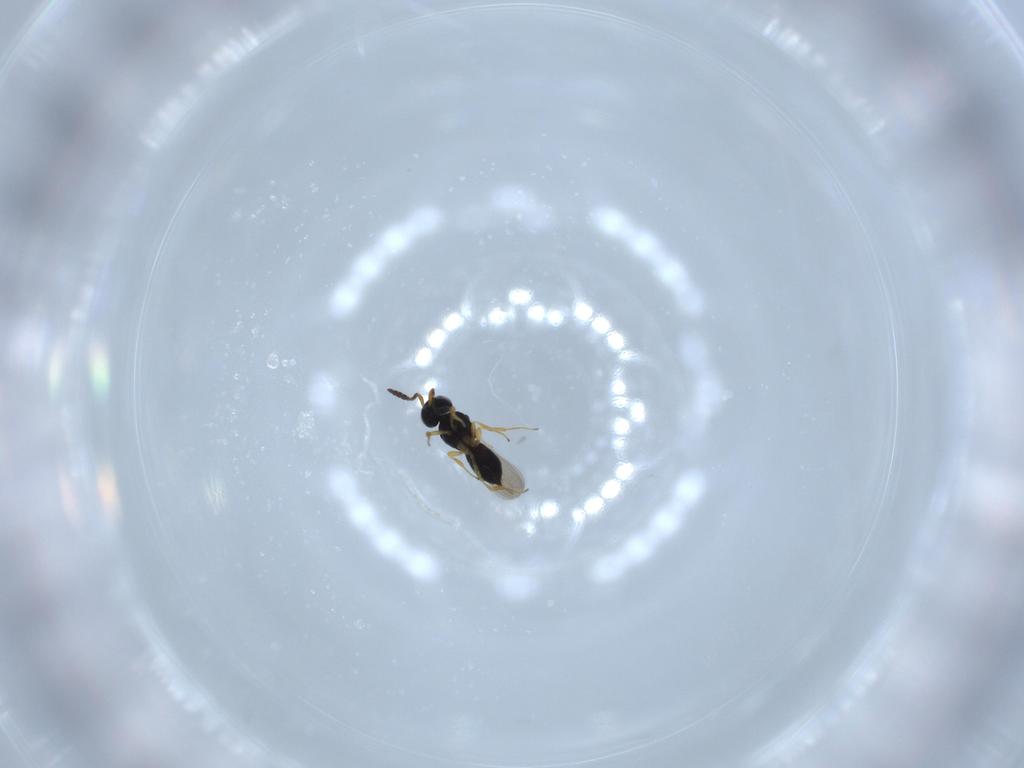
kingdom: Animalia
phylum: Arthropoda
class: Insecta
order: Hymenoptera
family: Scelionidae
